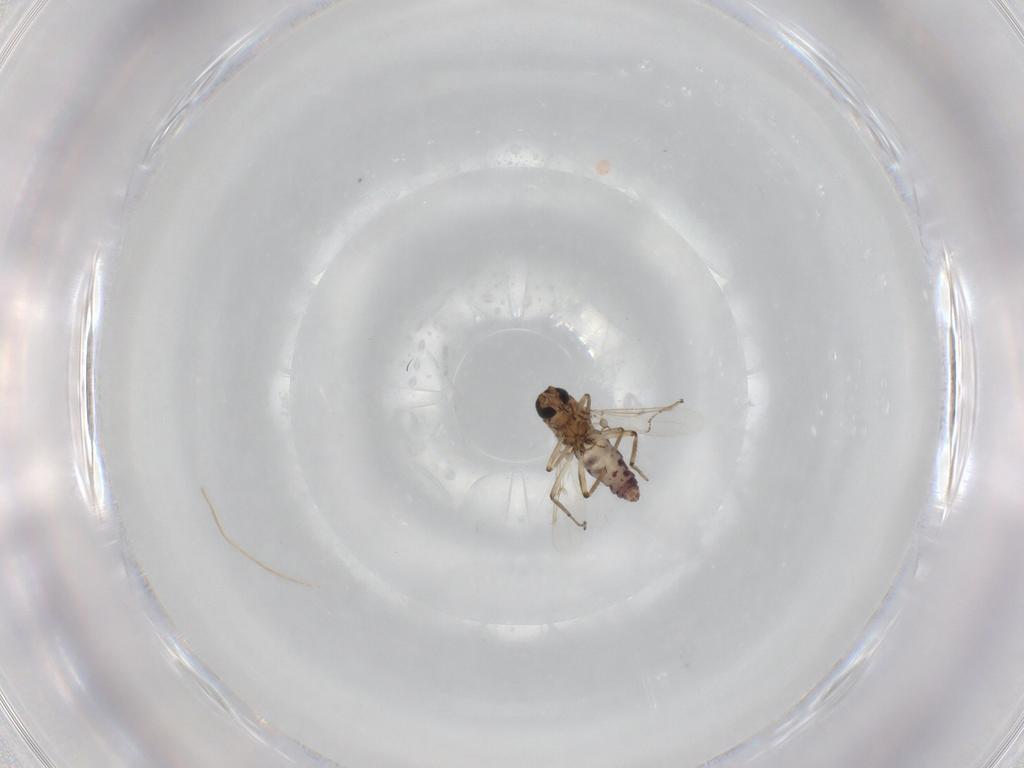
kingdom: Animalia
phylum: Arthropoda
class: Insecta
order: Diptera
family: Ceratopogonidae
